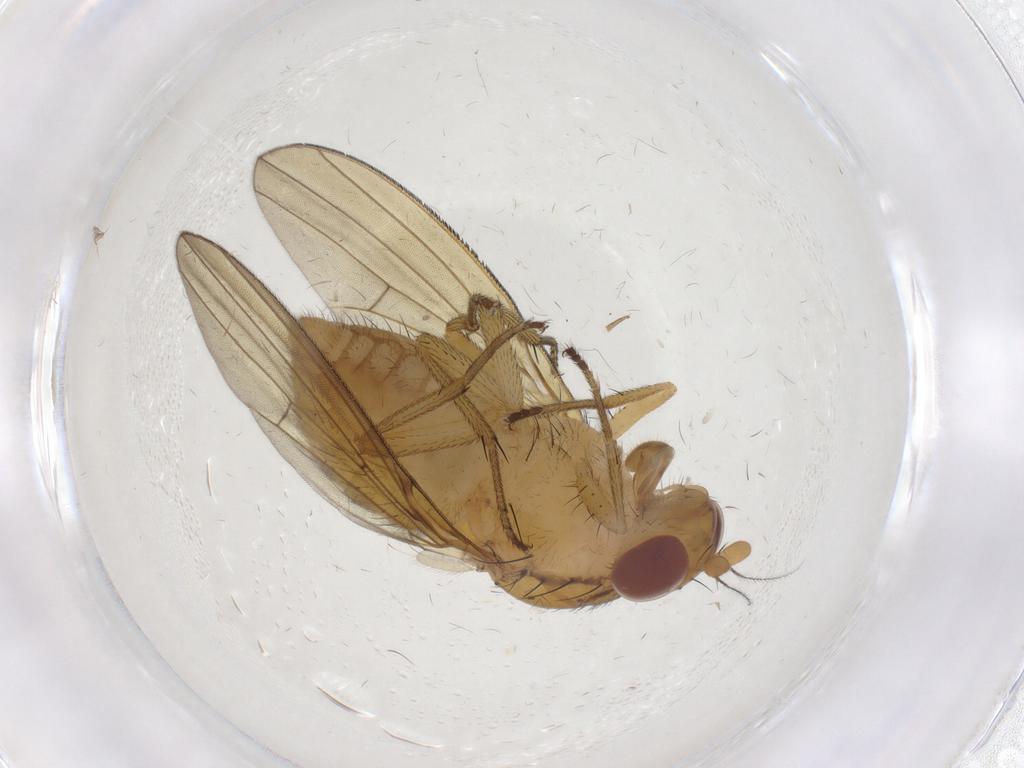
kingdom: Animalia
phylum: Arthropoda
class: Insecta
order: Diptera
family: Lauxaniidae
